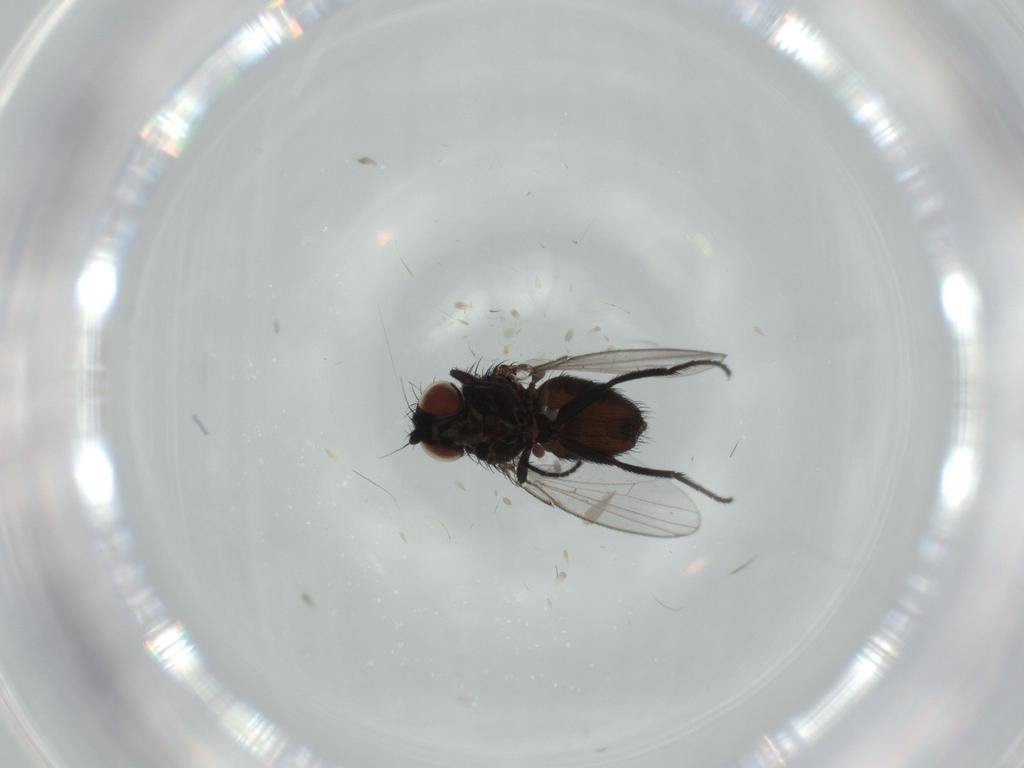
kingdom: Animalia
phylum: Arthropoda
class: Insecta
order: Diptera
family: Milichiidae
